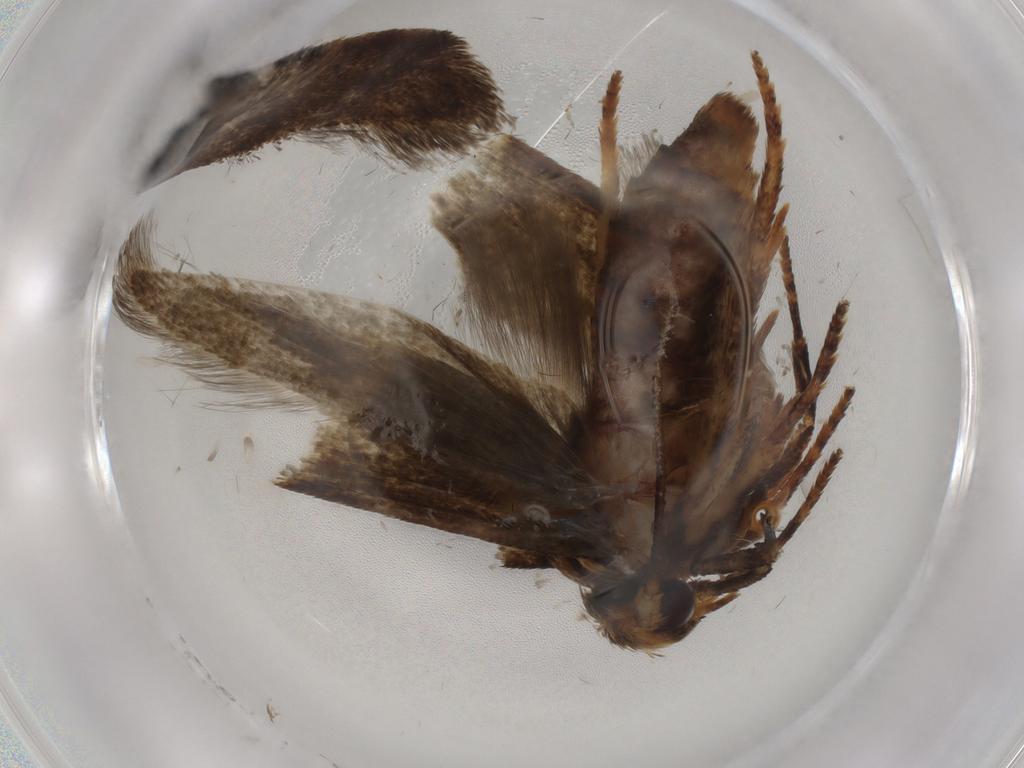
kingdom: Animalia
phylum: Arthropoda
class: Insecta
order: Lepidoptera
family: Blastobasidae
